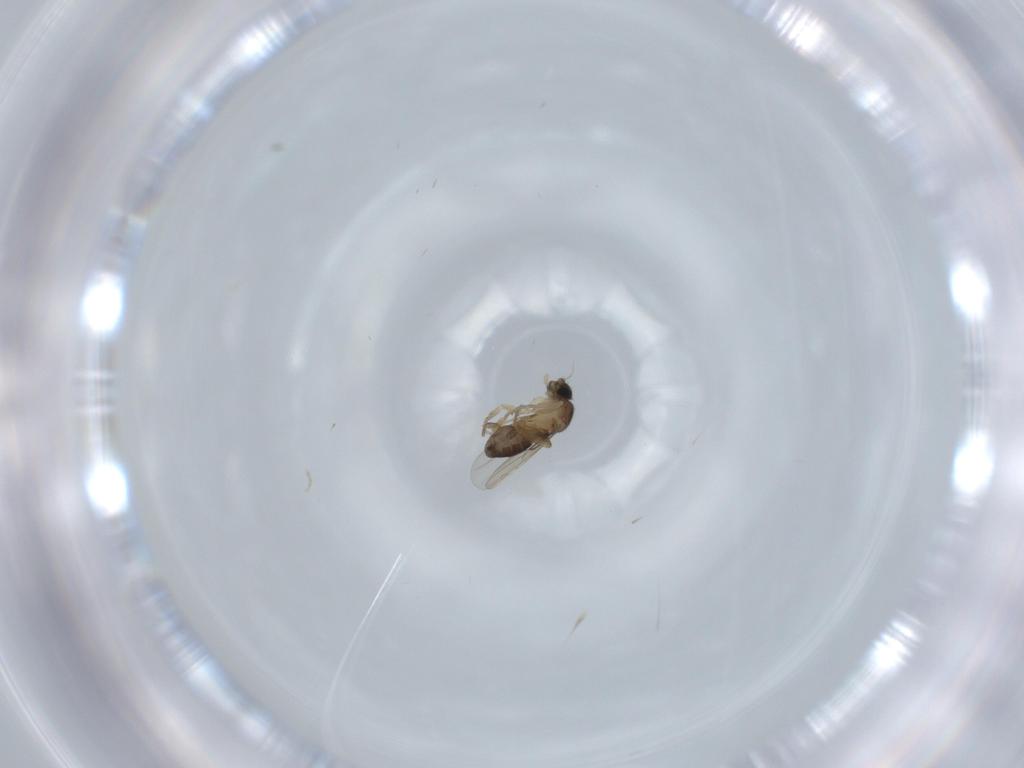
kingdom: Animalia
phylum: Arthropoda
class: Insecta
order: Diptera
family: Phoridae
